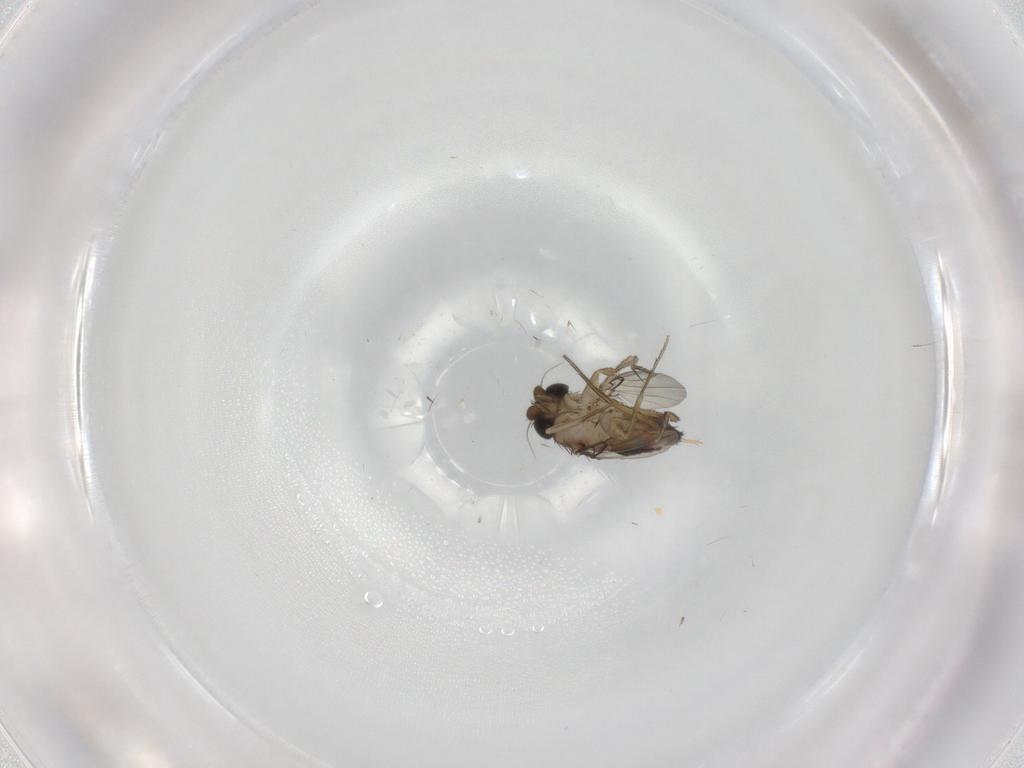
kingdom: Animalia
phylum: Arthropoda
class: Insecta
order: Diptera
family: Phoridae
